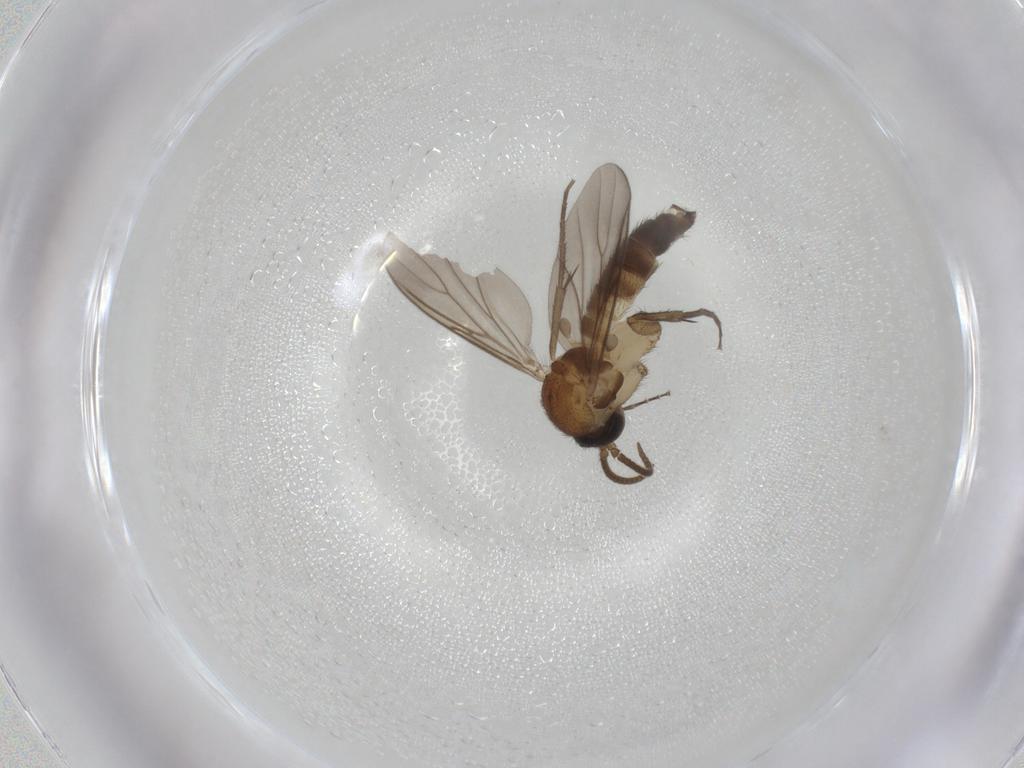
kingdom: Animalia
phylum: Arthropoda
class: Insecta
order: Diptera
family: Mycetophilidae
